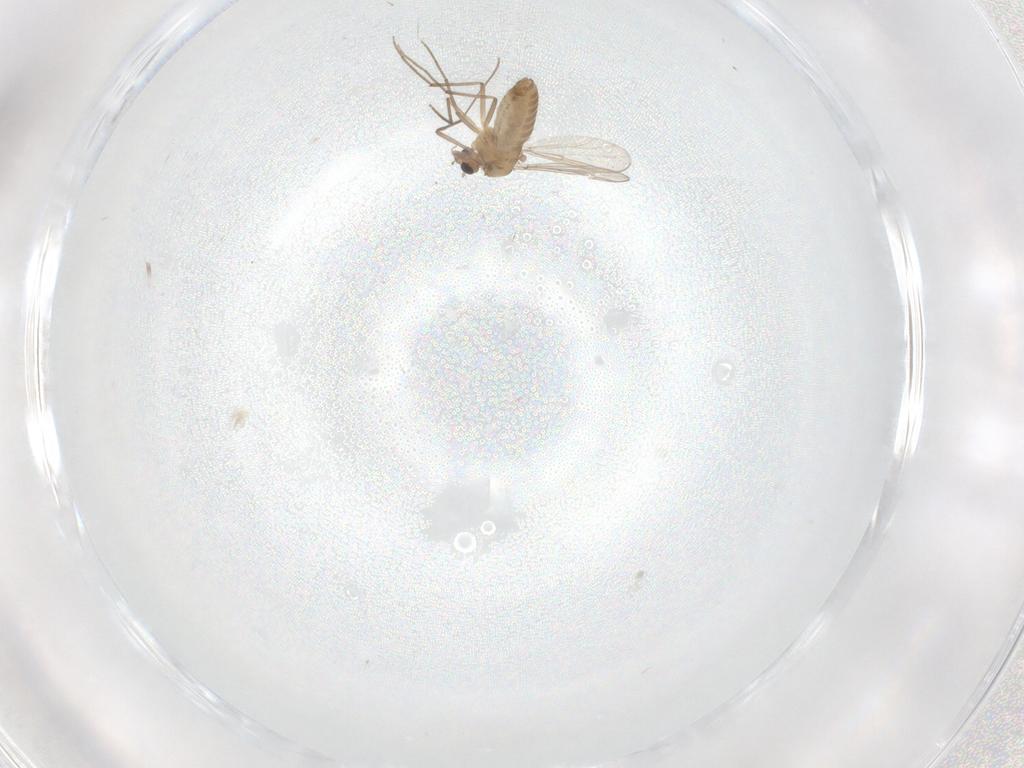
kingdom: Animalia
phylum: Arthropoda
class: Insecta
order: Diptera
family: Chironomidae
